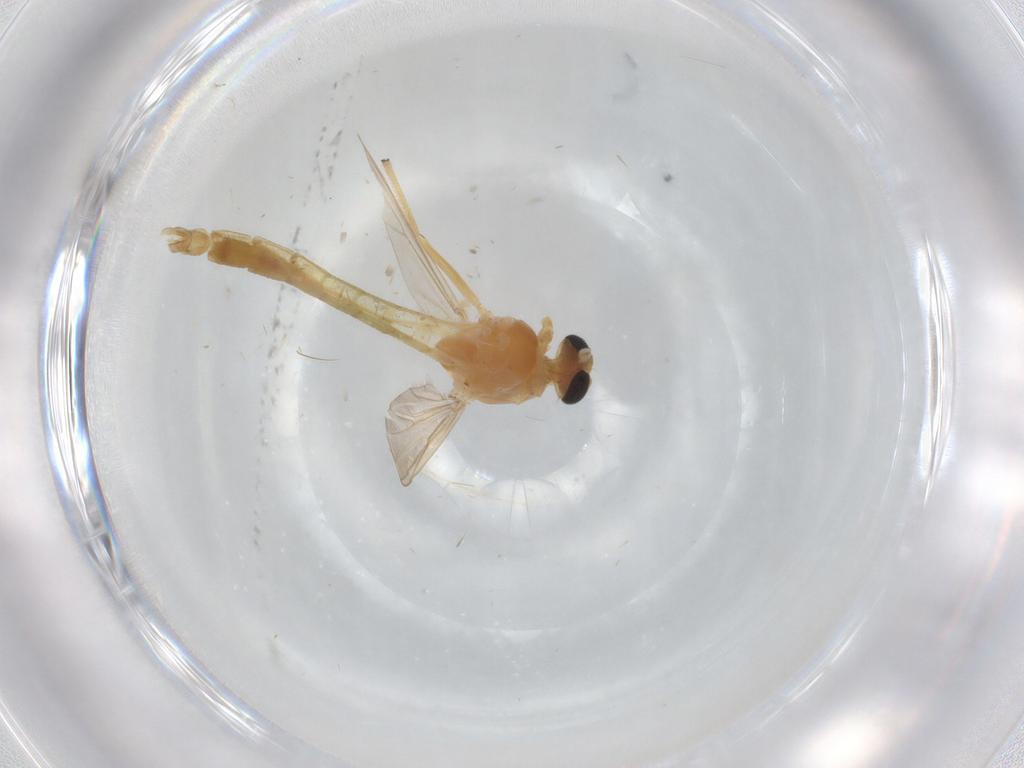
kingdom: Animalia
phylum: Arthropoda
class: Insecta
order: Diptera
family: Chironomidae
